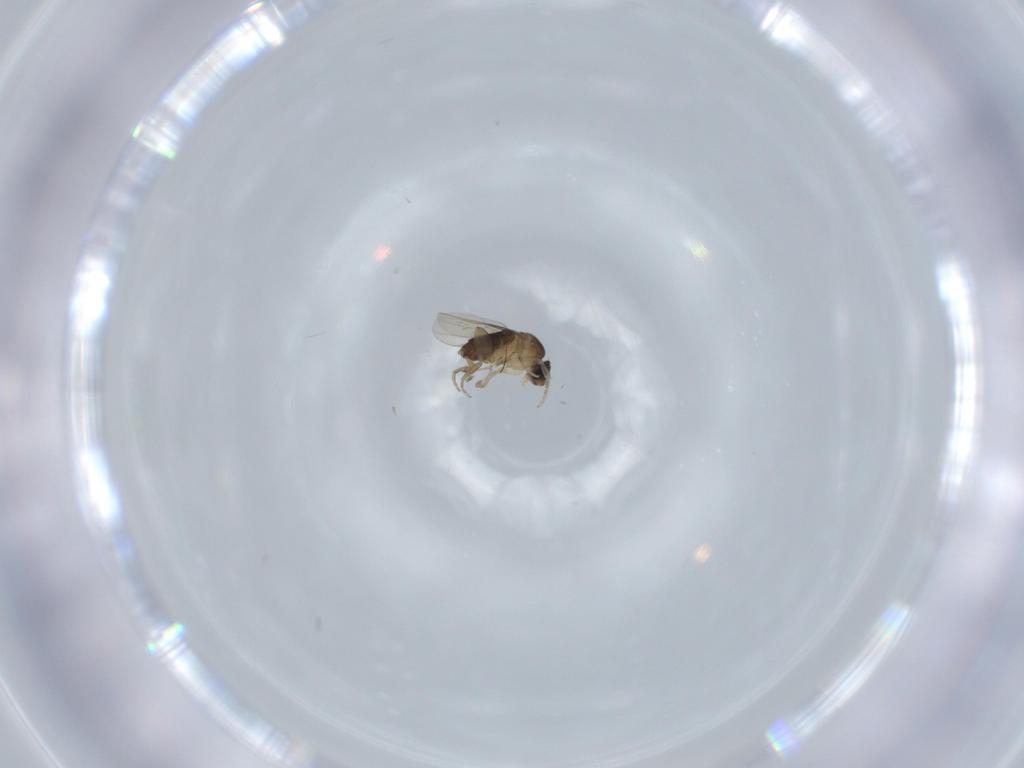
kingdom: Animalia
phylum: Arthropoda
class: Insecta
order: Diptera
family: Phoridae
